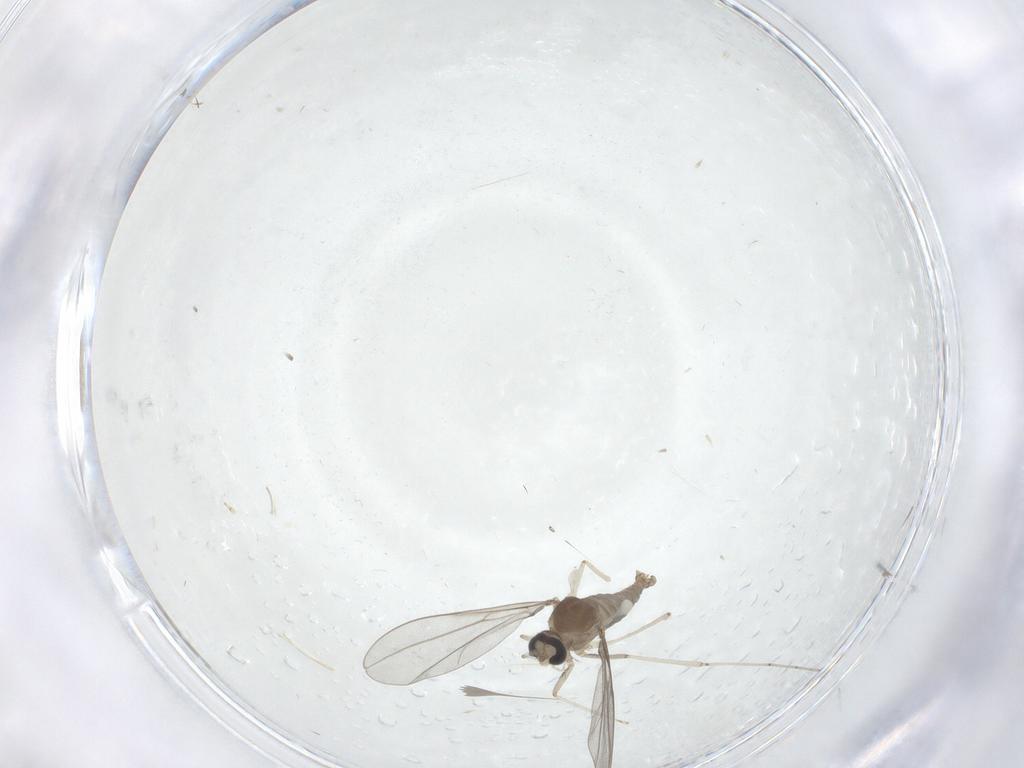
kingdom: Animalia
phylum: Arthropoda
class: Insecta
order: Diptera
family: Cecidomyiidae
